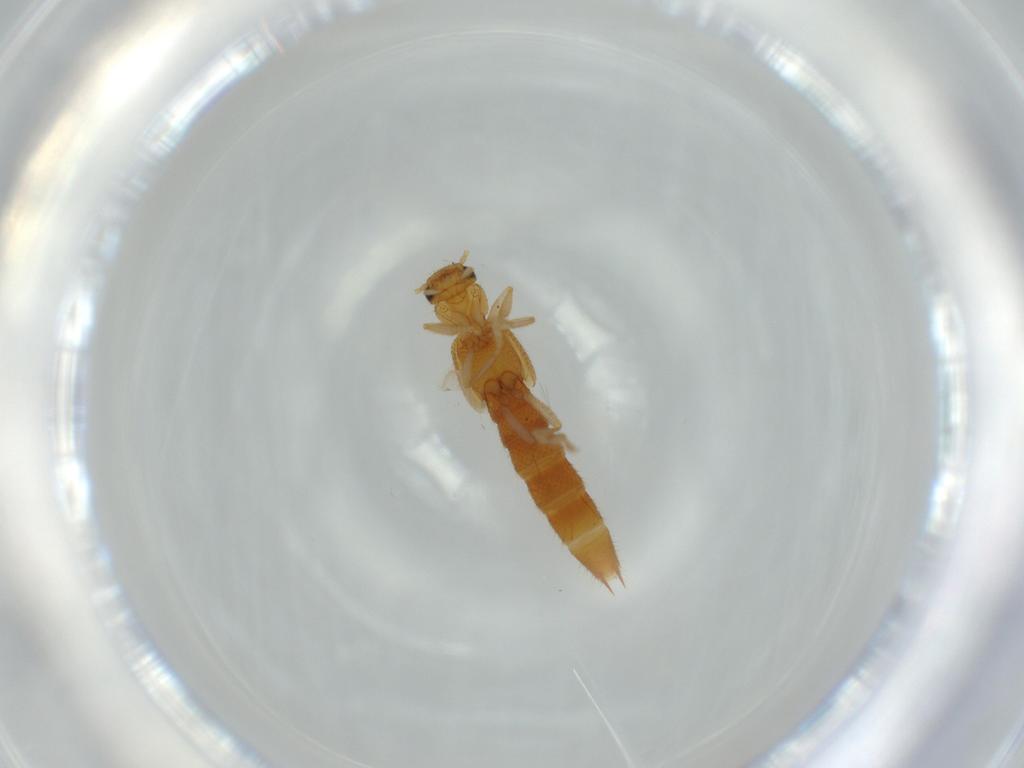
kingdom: Animalia
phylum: Arthropoda
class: Insecta
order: Coleoptera
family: Staphylinidae
